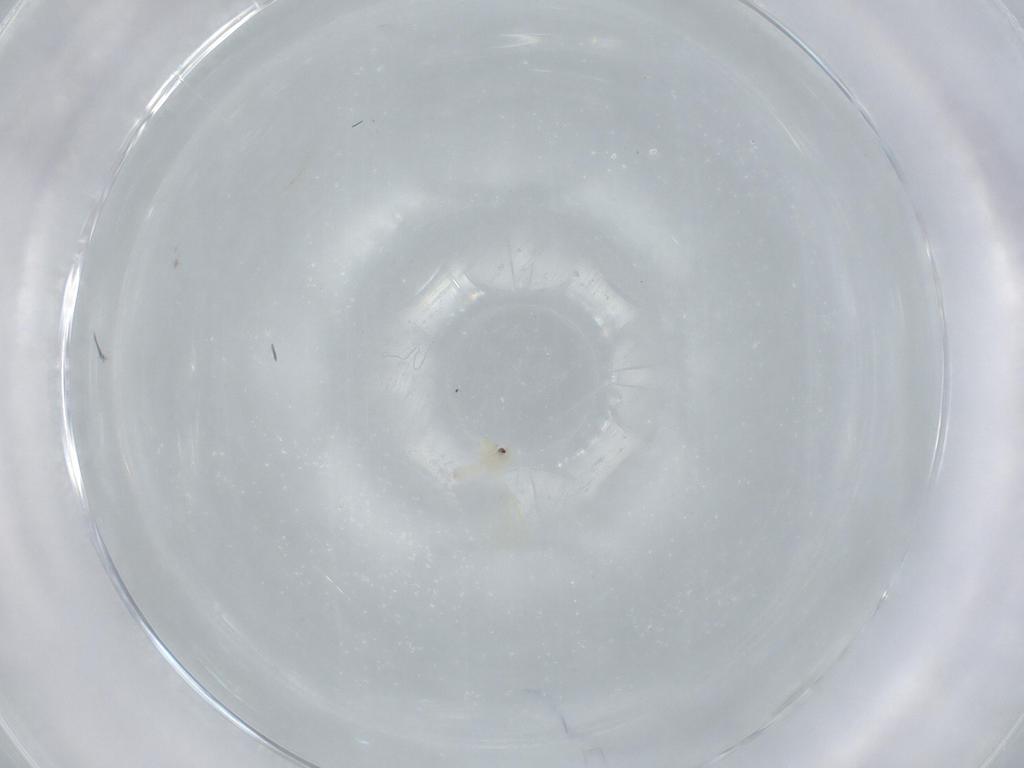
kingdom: Animalia
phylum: Arthropoda
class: Insecta
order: Hemiptera
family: Aleyrodidae
